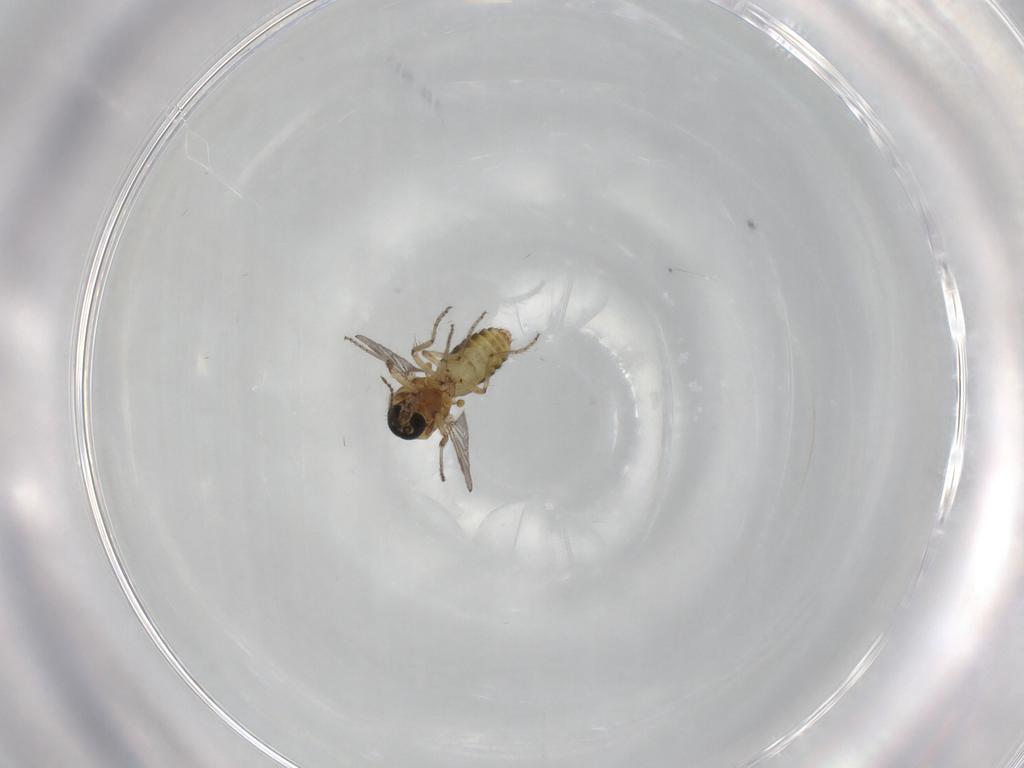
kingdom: Animalia
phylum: Arthropoda
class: Insecta
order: Diptera
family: Ceratopogonidae
